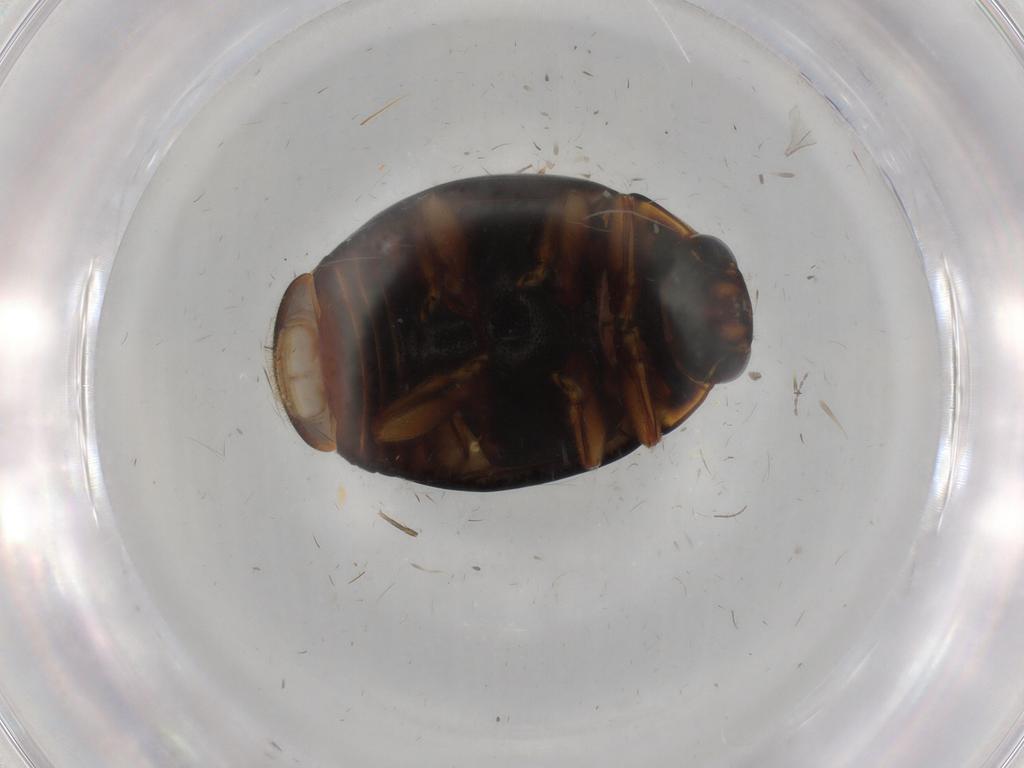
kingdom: Animalia
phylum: Arthropoda
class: Insecta
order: Coleoptera
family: Coccinellidae
